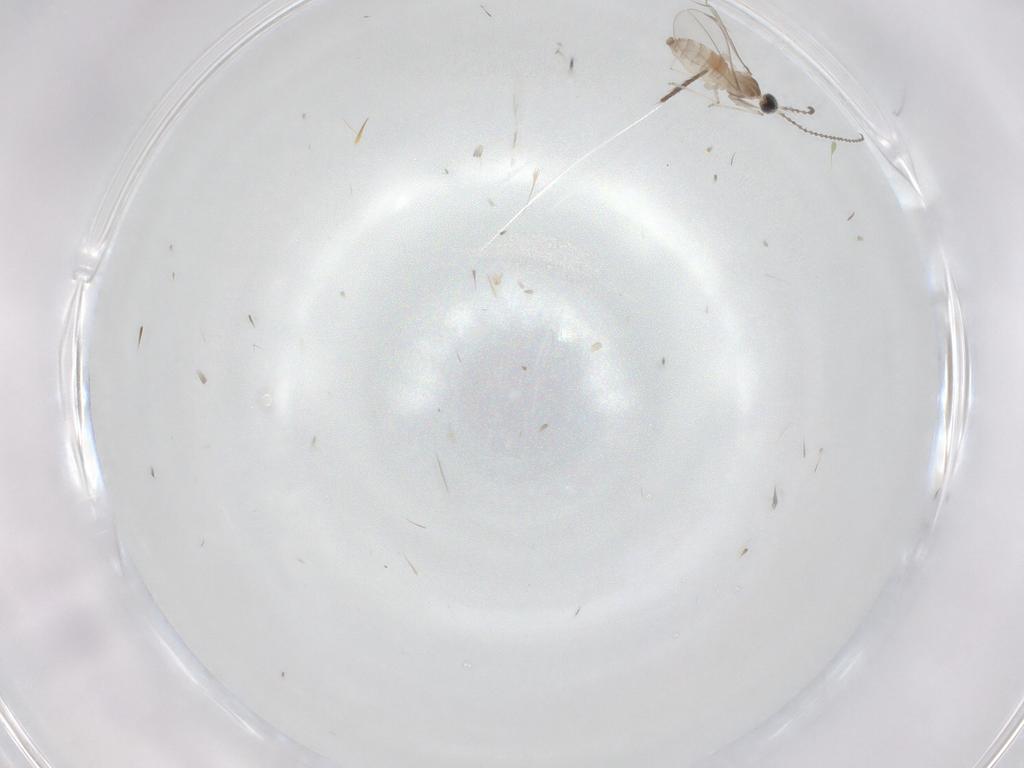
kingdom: Animalia
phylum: Arthropoda
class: Insecta
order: Diptera
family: Cecidomyiidae
